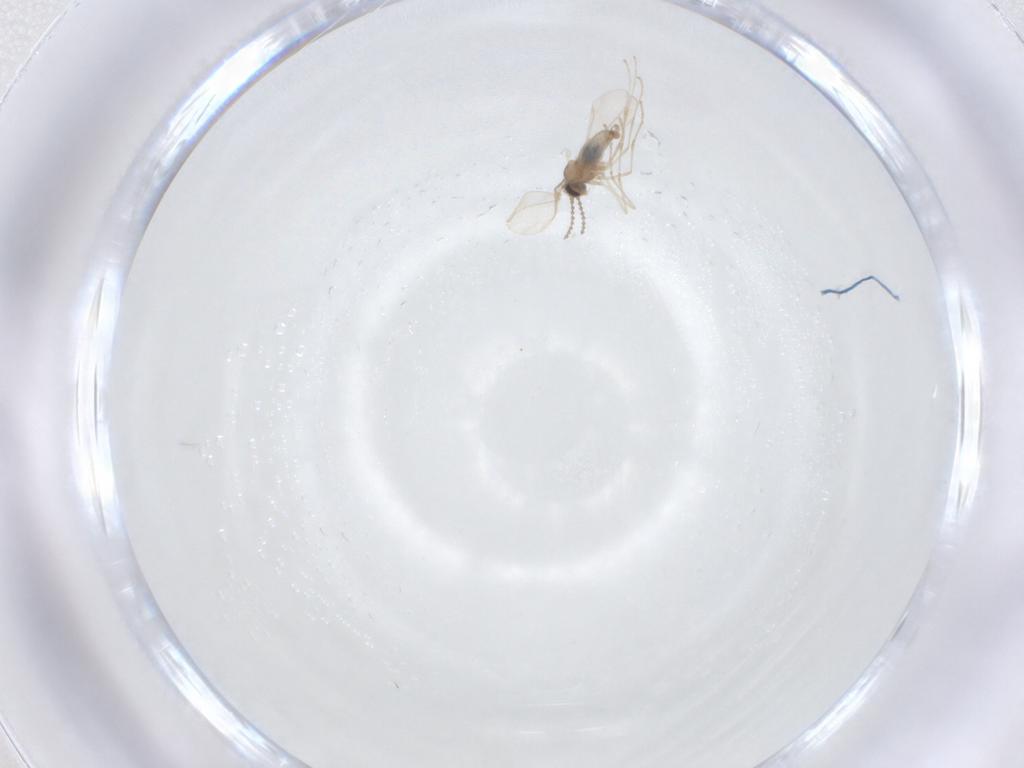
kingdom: Animalia
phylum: Arthropoda
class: Insecta
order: Diptera
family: Cecidomyiidae
